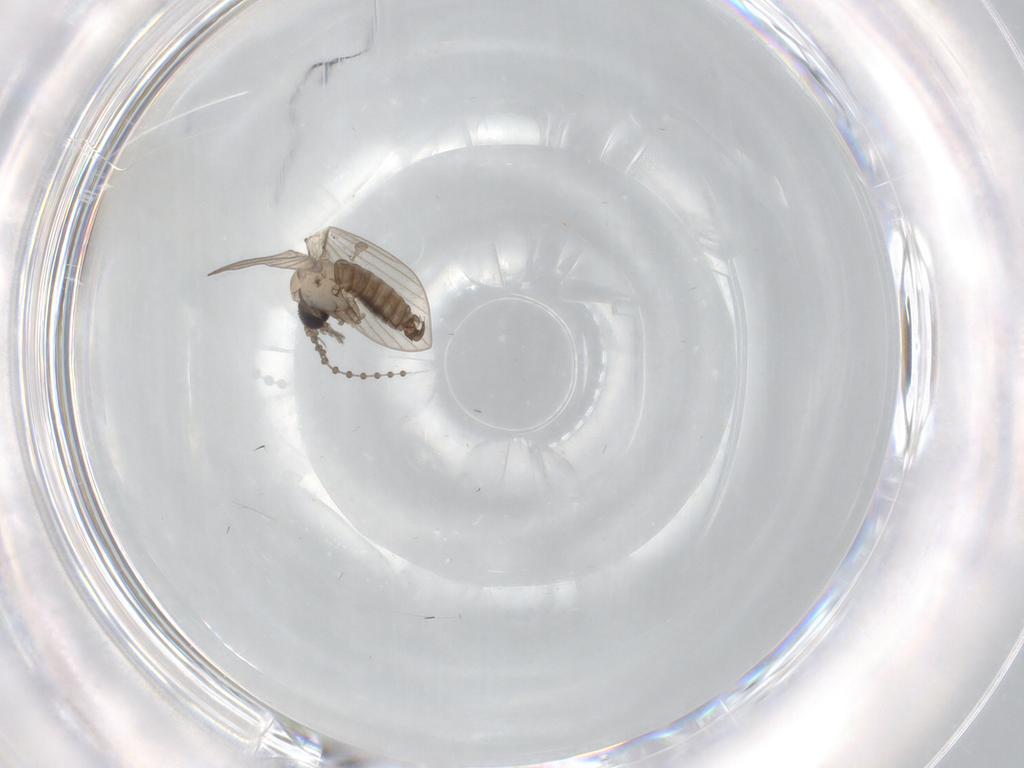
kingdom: Animalia
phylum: Arthropoda
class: Insecta
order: Diptera
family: Psychodidae
